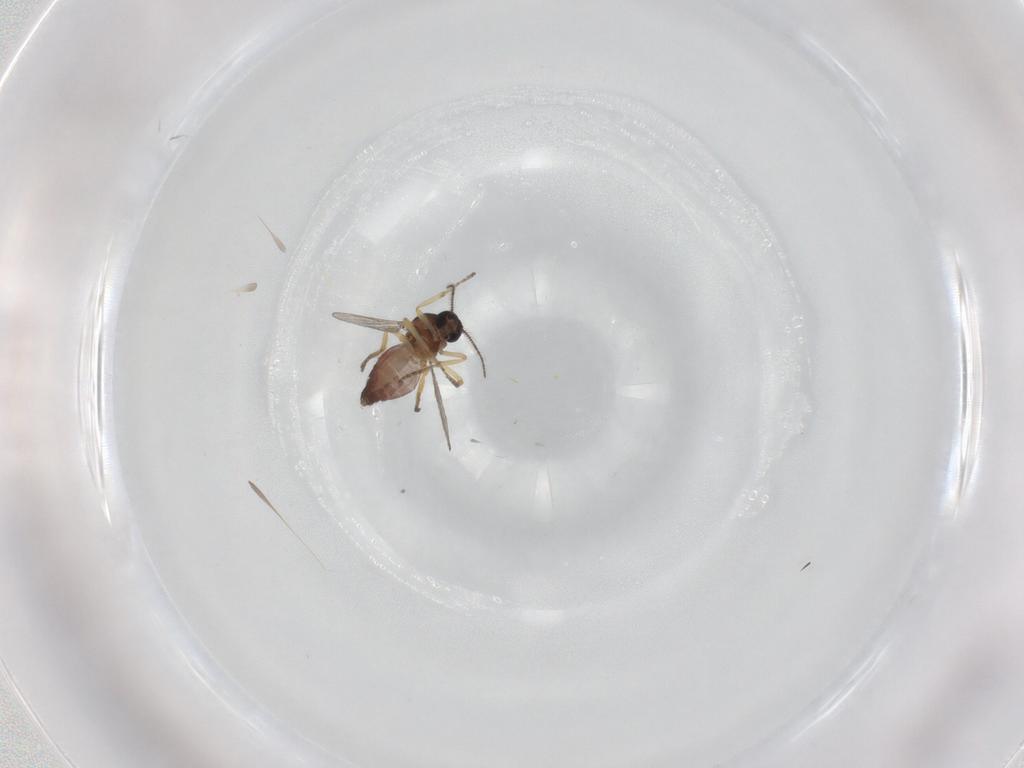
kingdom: Animalia
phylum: Arthropoda
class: Insecta
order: Diptera
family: Ceratopogonidae
